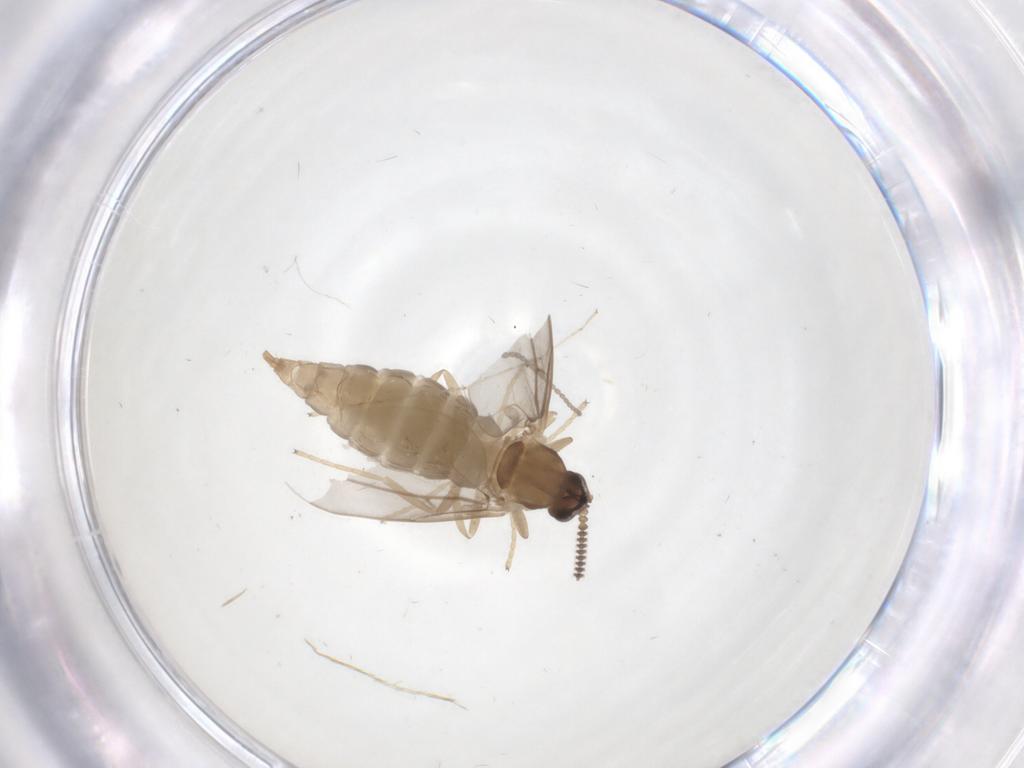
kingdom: Animalia
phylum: Arthropoda
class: Insecta
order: Diptera
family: Cecidomyiidae
